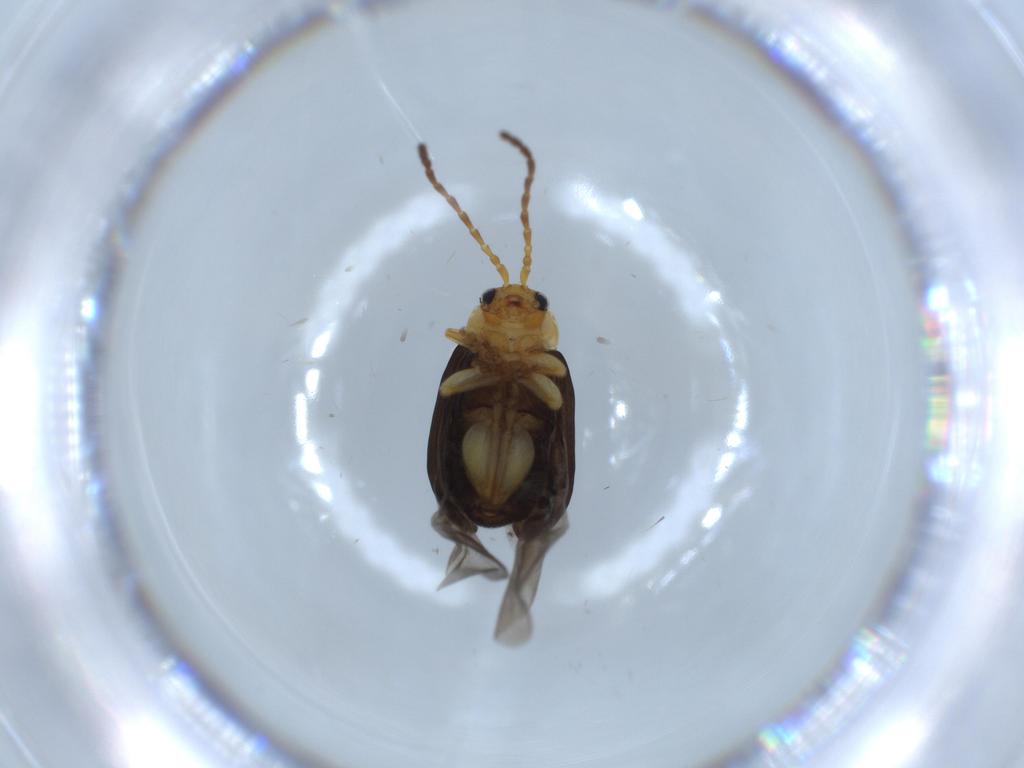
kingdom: Animalia
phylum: Arthropoda
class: Insecta
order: Coleoptera
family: Chrysomelidae
